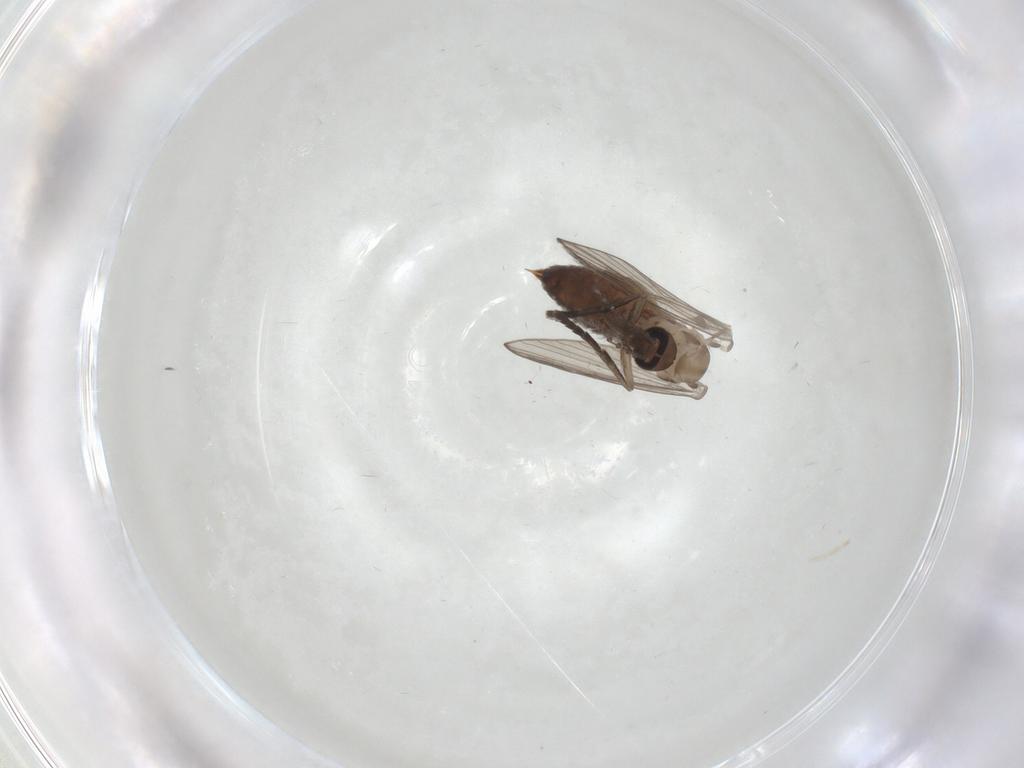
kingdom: Animalia
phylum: Arthropoda
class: Insecta
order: Diptera
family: Psychodidae
